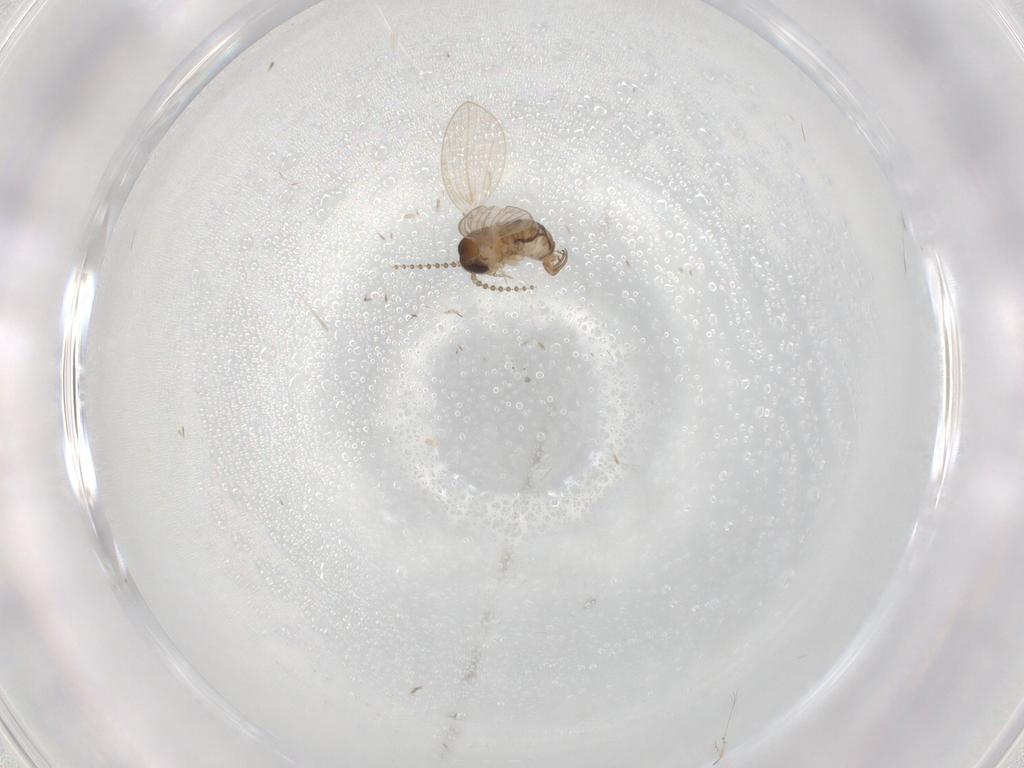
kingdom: Animalia
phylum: Arthropoda
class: Insecta
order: Diptera
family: Psychodidae
